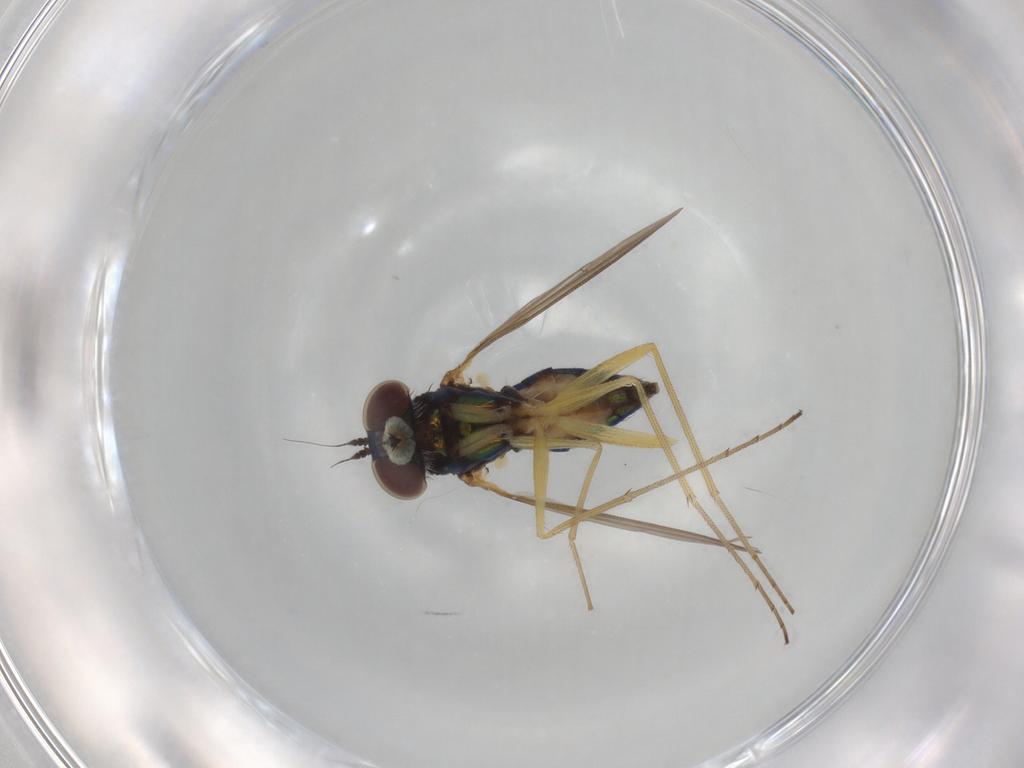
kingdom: Animalia
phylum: Arthropoda
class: Insecta
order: Diptera
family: Dolichopodidae
